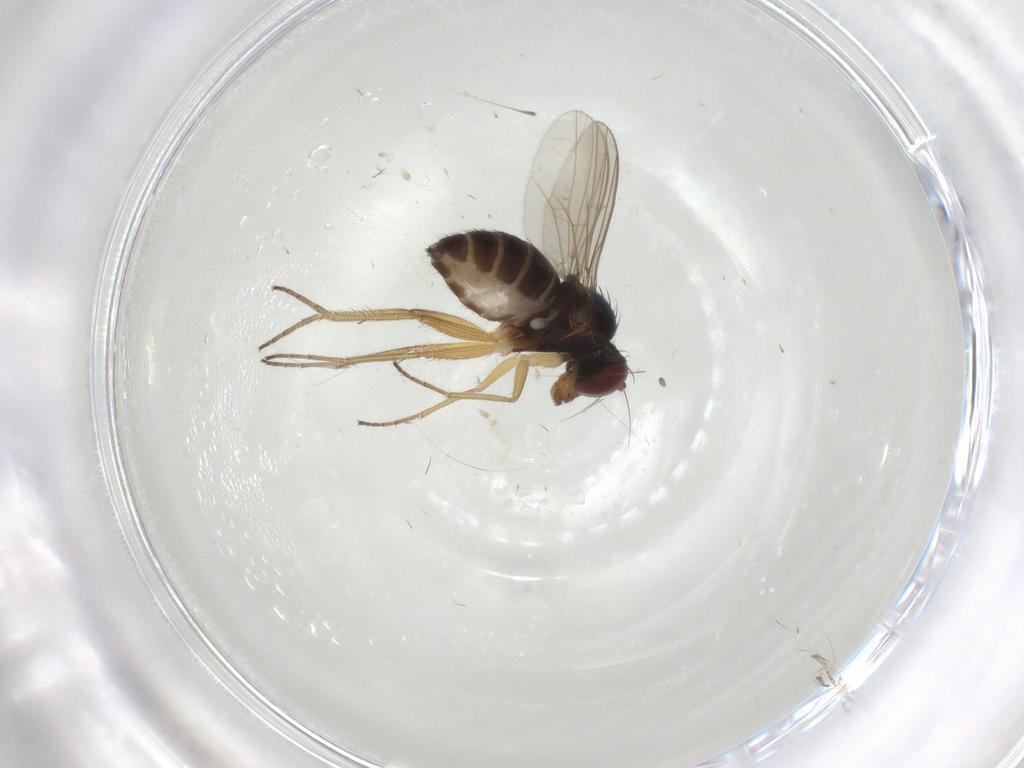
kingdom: Animalia
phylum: Arthropoda
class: Insecta
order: Diptera
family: Dolichopodidae
